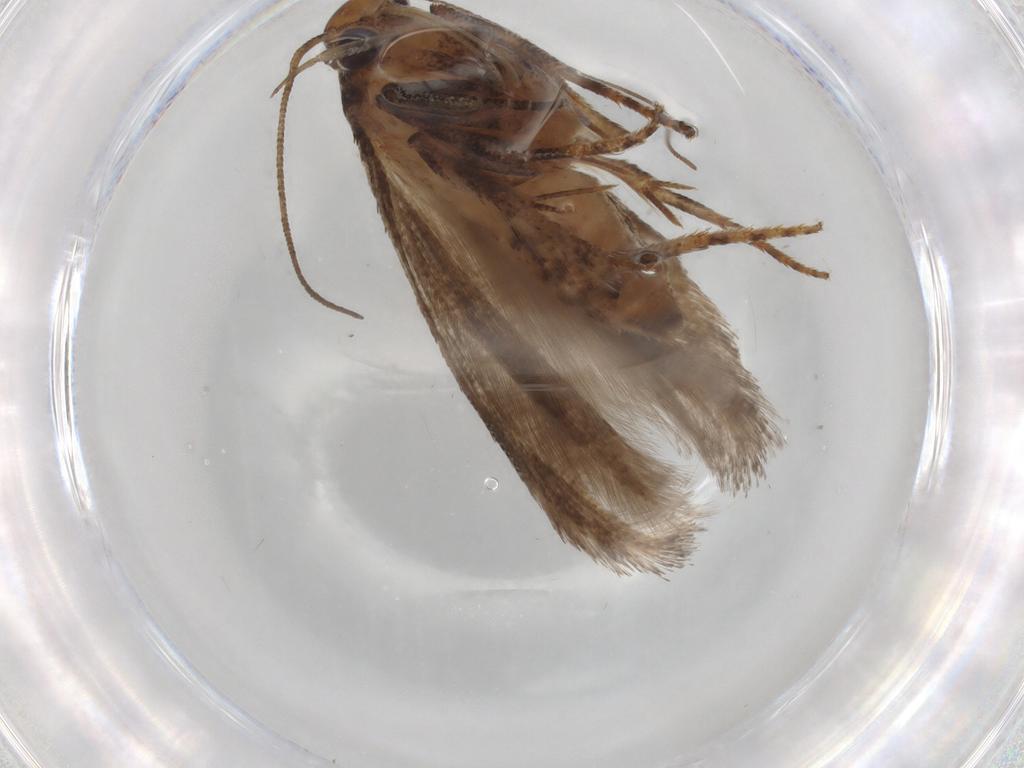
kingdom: Animalia
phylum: Arthropoda
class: Insecta
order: Lepidoptera
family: Gelechiidae
